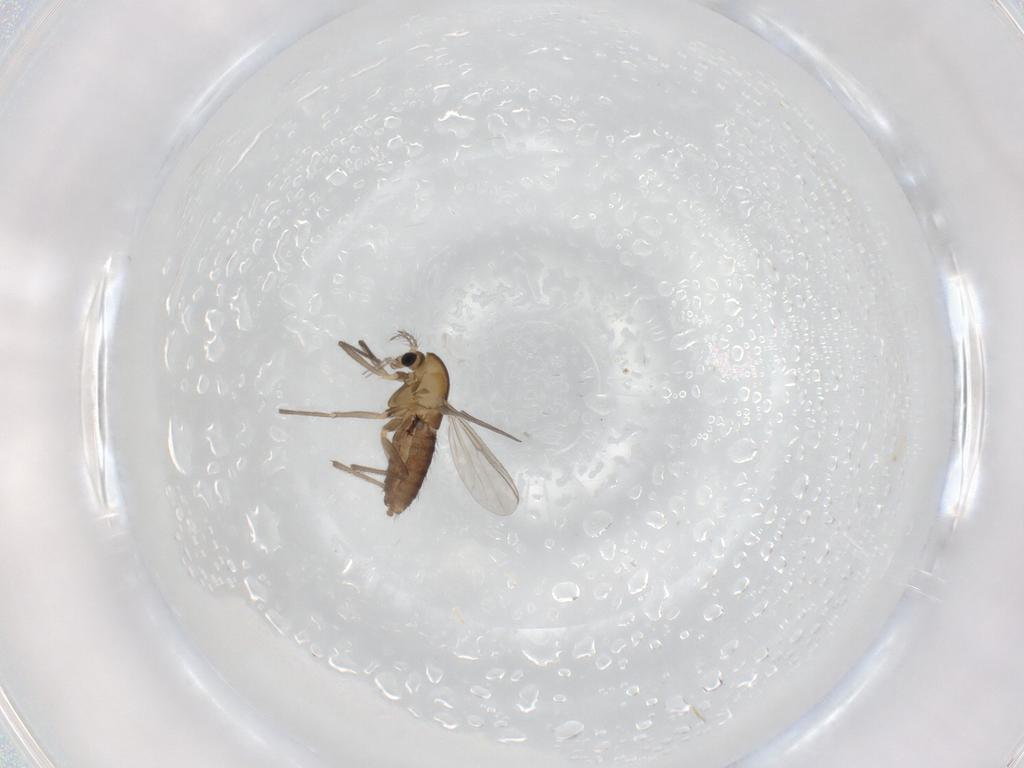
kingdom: Animalia
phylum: Arthropoda
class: Insecta
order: Diptera
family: Chironomidae
